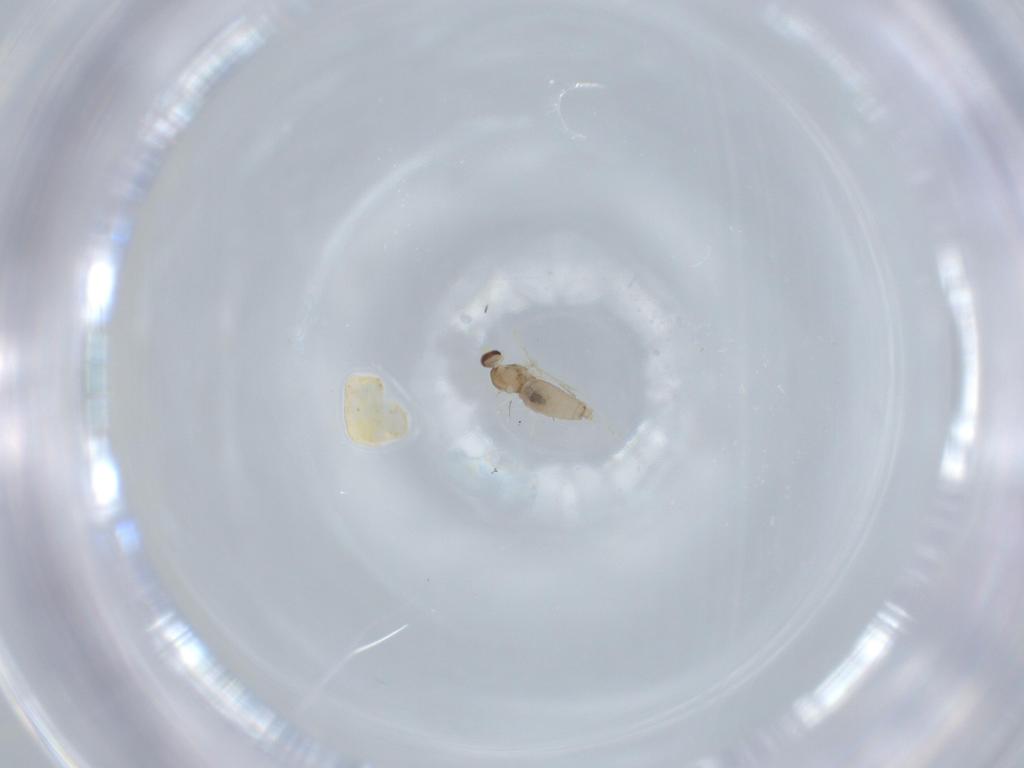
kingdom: Animalia
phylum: Arthropoda
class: Insecta
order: Diptera
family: Cecidomyiidae
